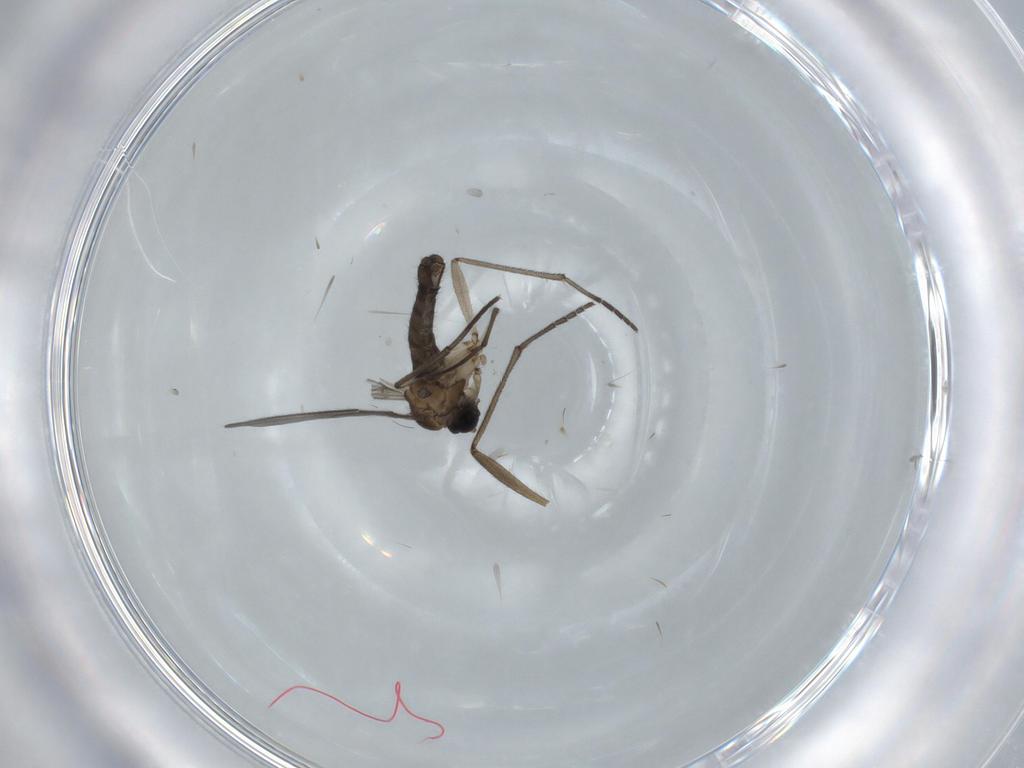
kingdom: Animalia
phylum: Arthropoda
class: Insecta
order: Diptera
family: Sciaridae
